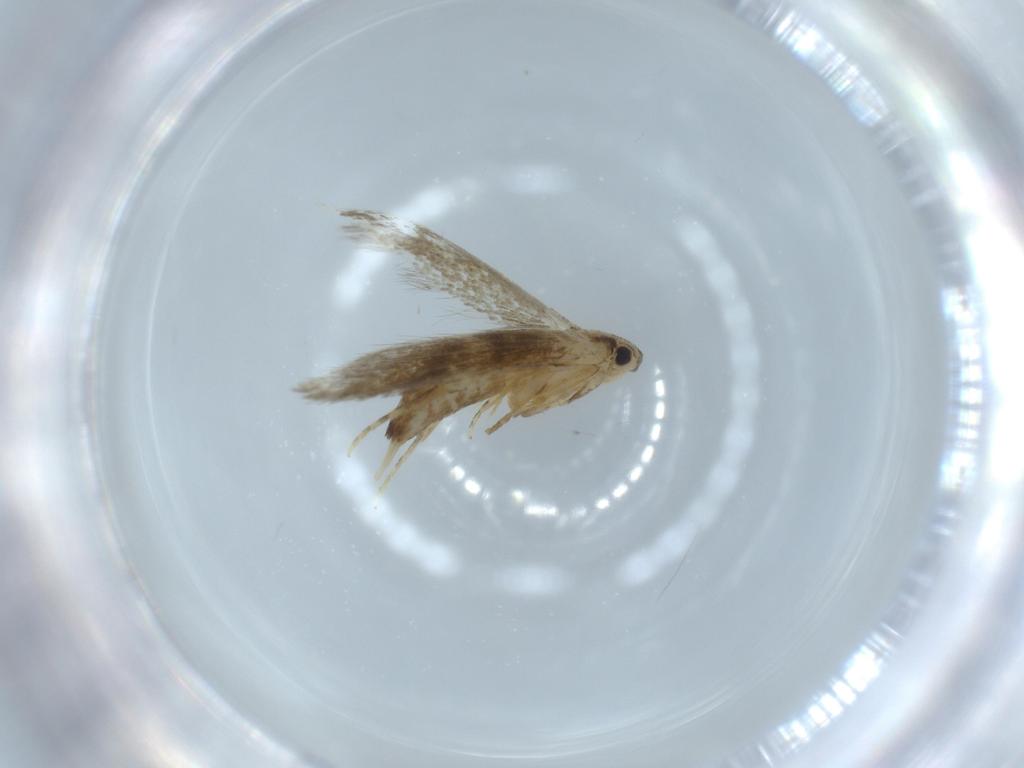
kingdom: Animalia
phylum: Arthropoda
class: Insecta
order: Lepidoptera
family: Tineidae
